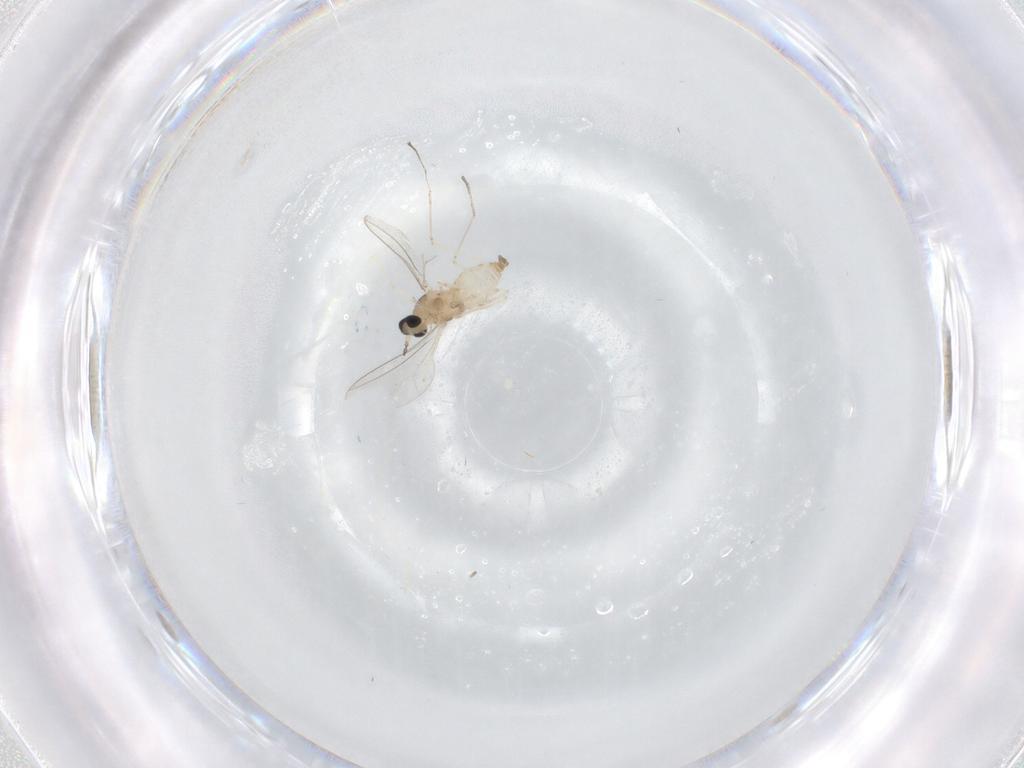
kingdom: Animalia
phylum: Arthropoda
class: Insecta
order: Diptera
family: Cecidomyiidae
